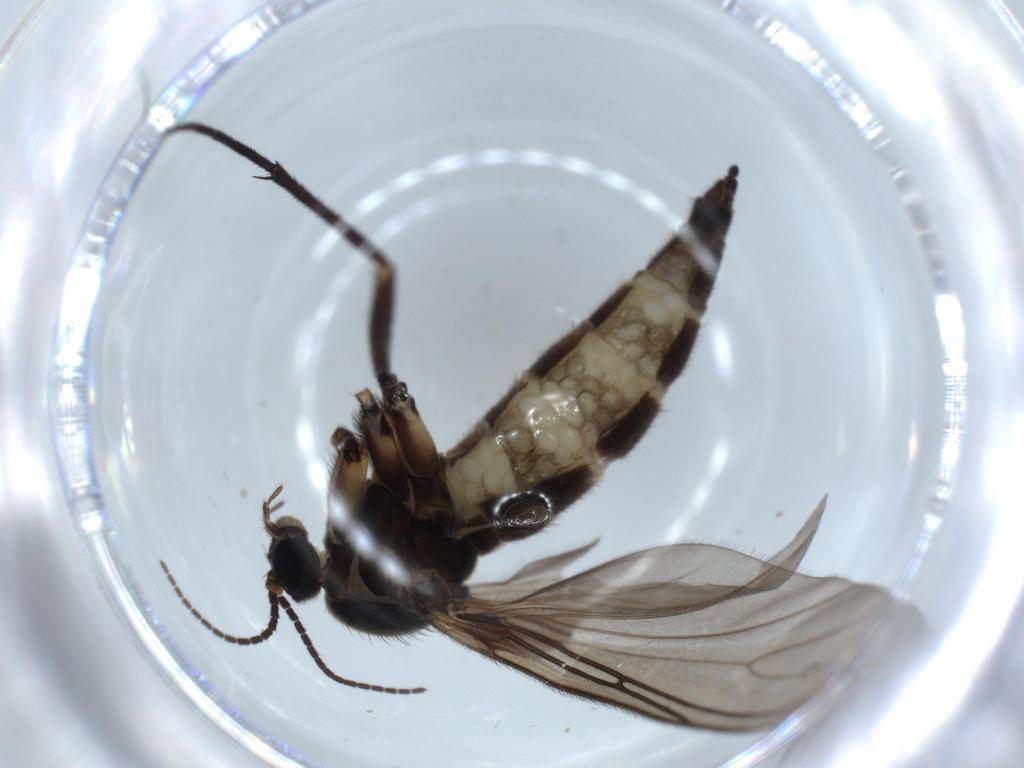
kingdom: Animalia
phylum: Arthropoda
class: Insecta
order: Diptera
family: Sciaridae
